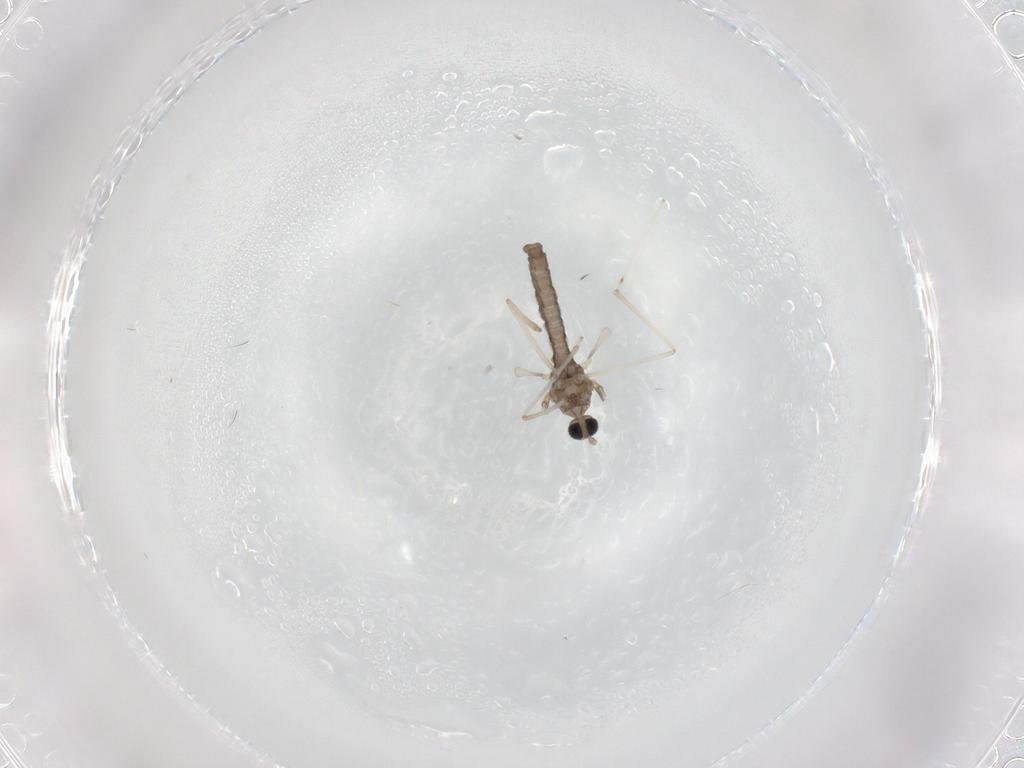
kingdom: Animalia
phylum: Arthropoda
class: Insecta
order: Diptera
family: Cecidomyiidae
